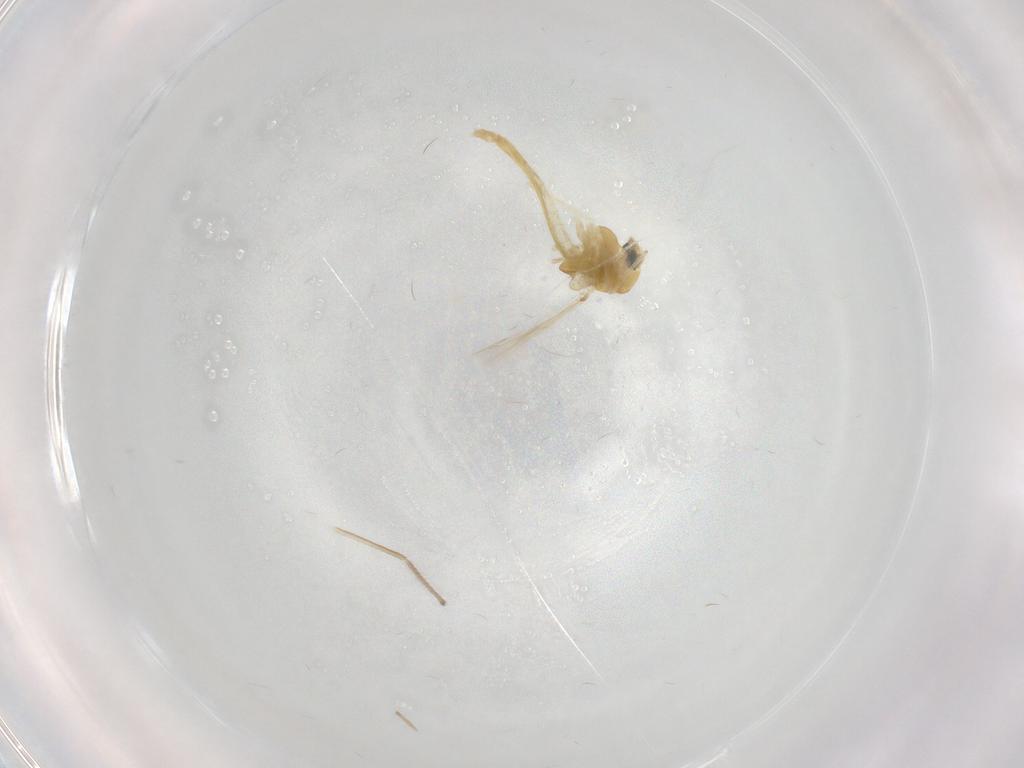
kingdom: Animalia
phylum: Arthropoda
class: Insecta
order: Diptera
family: Chironomidae
